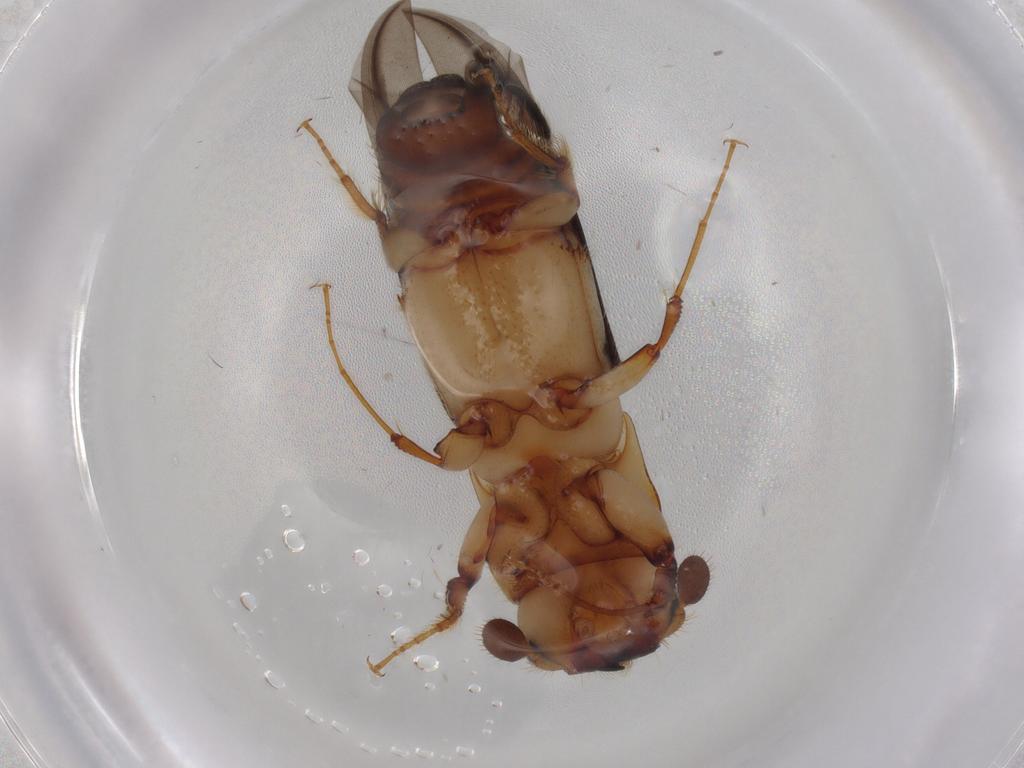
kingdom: Animalia
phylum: Arthropoda
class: Insecta
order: Coleoptera
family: Curculionidae
